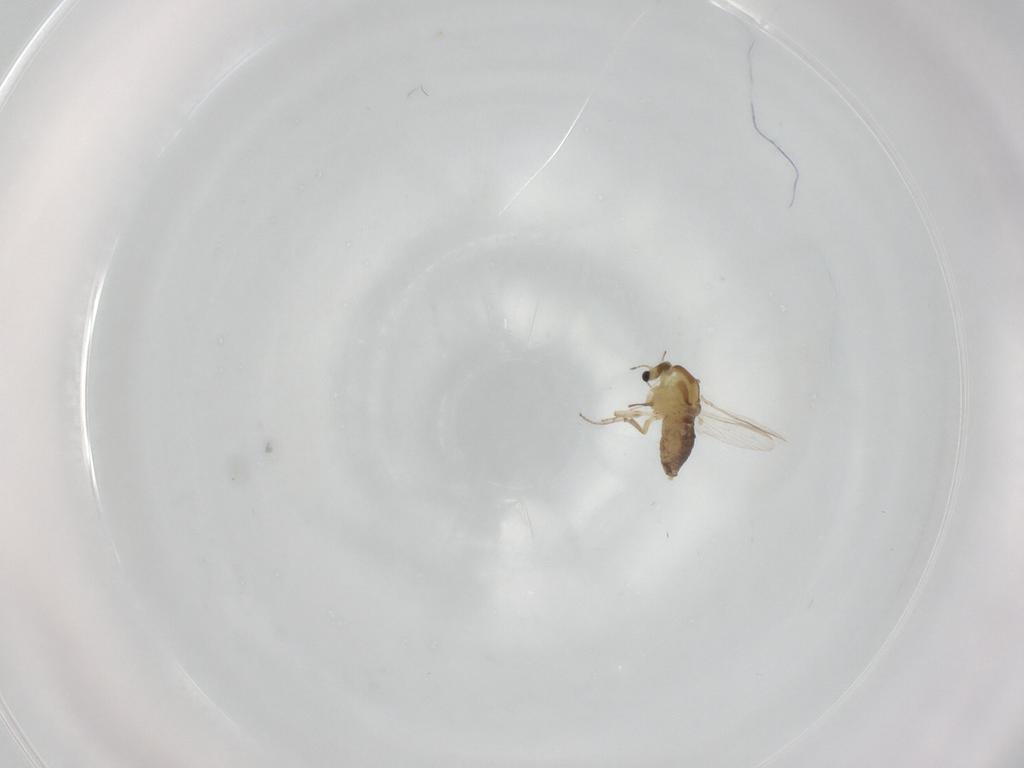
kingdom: Animalia
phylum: Arthropoda
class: Insecta
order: Diptera
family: Chironomidae
